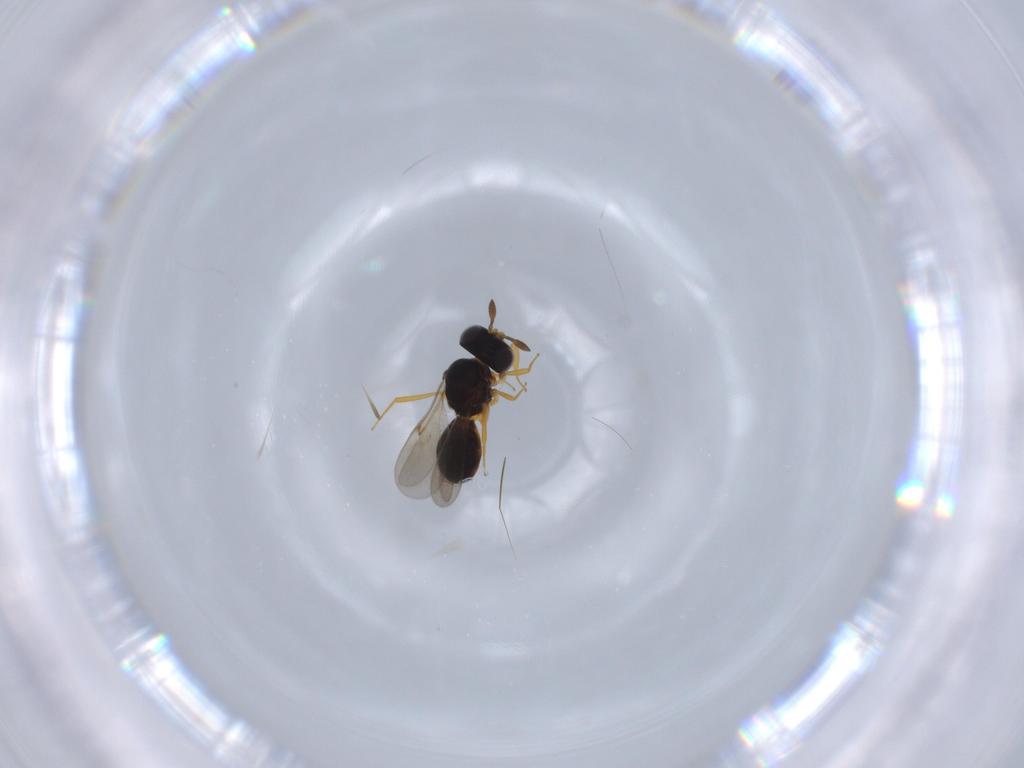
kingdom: Animalia
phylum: Arthropoda
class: Insecta
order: Hymenoptera
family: Scelionidae
